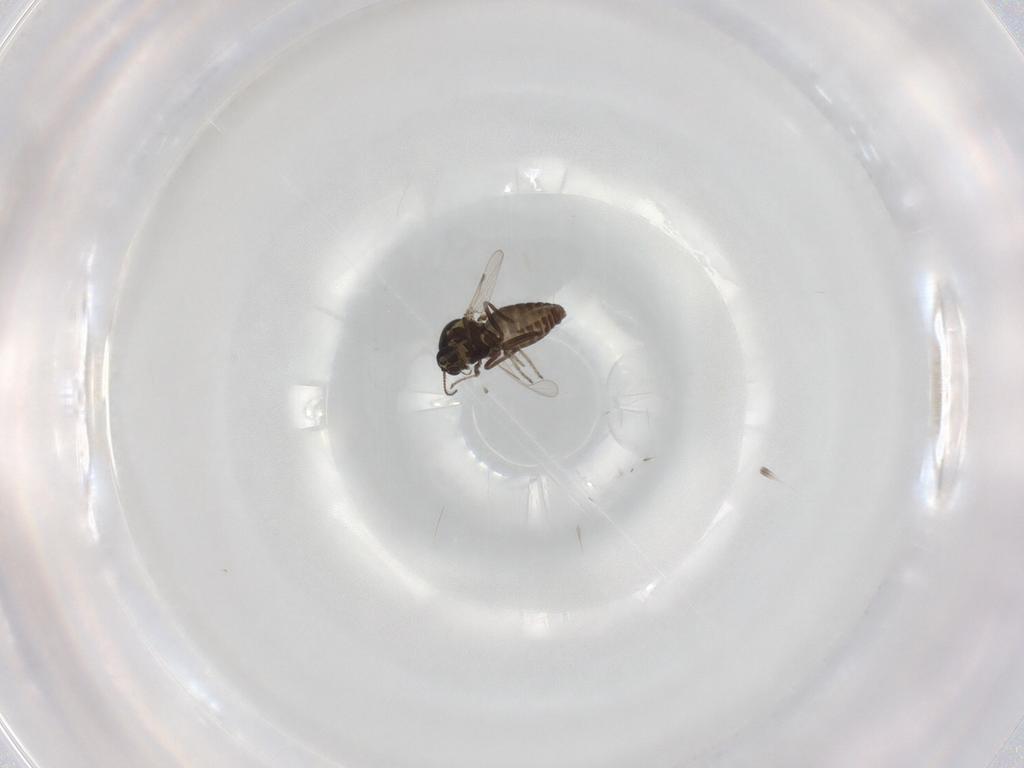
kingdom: Animalia
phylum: Arthropoda
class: Insecta
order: Diptera
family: Ceratopogonidae
